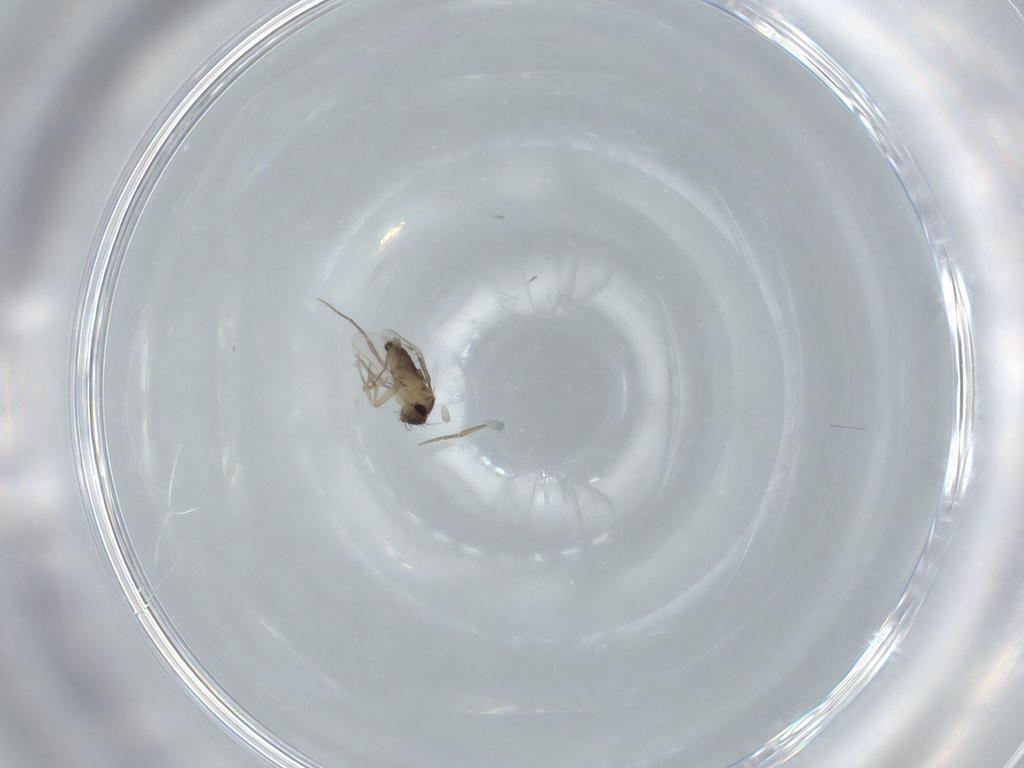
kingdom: Animalia
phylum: Arthropoda
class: Insecta
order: Diptera
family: Phoridae
